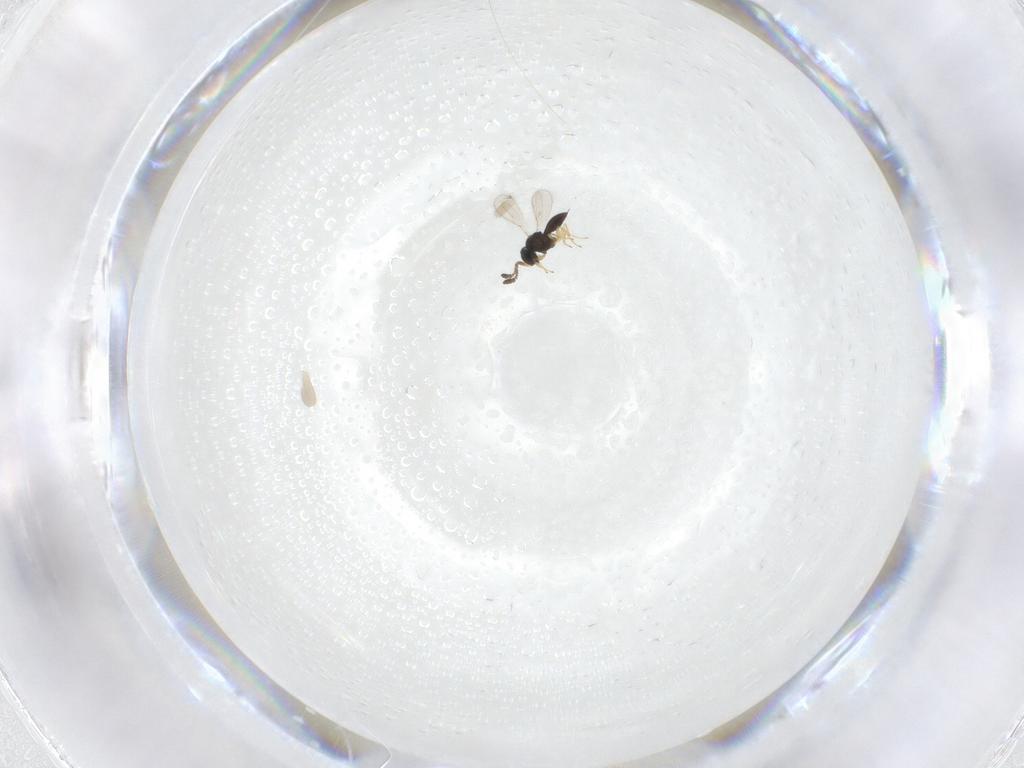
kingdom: Animalia
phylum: Arthropoda
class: Insecta
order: Hymenoptera
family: Scelionidae
